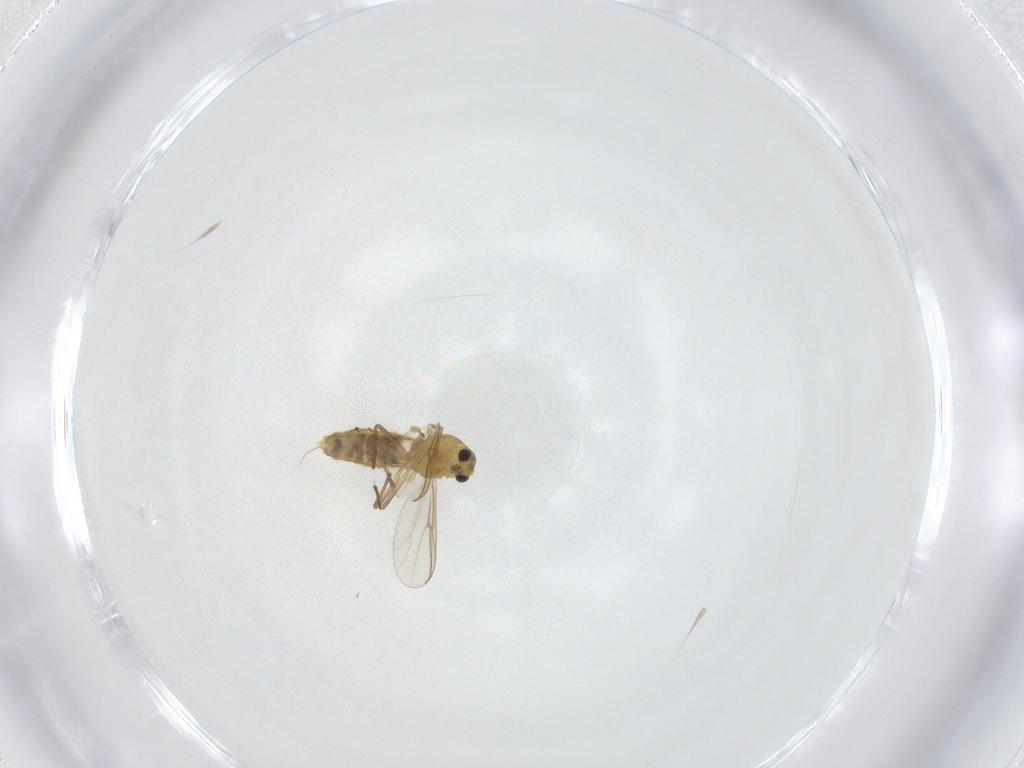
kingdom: Animalia
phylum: Arthropoda
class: Insecta
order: Diptera
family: Chironomidae
